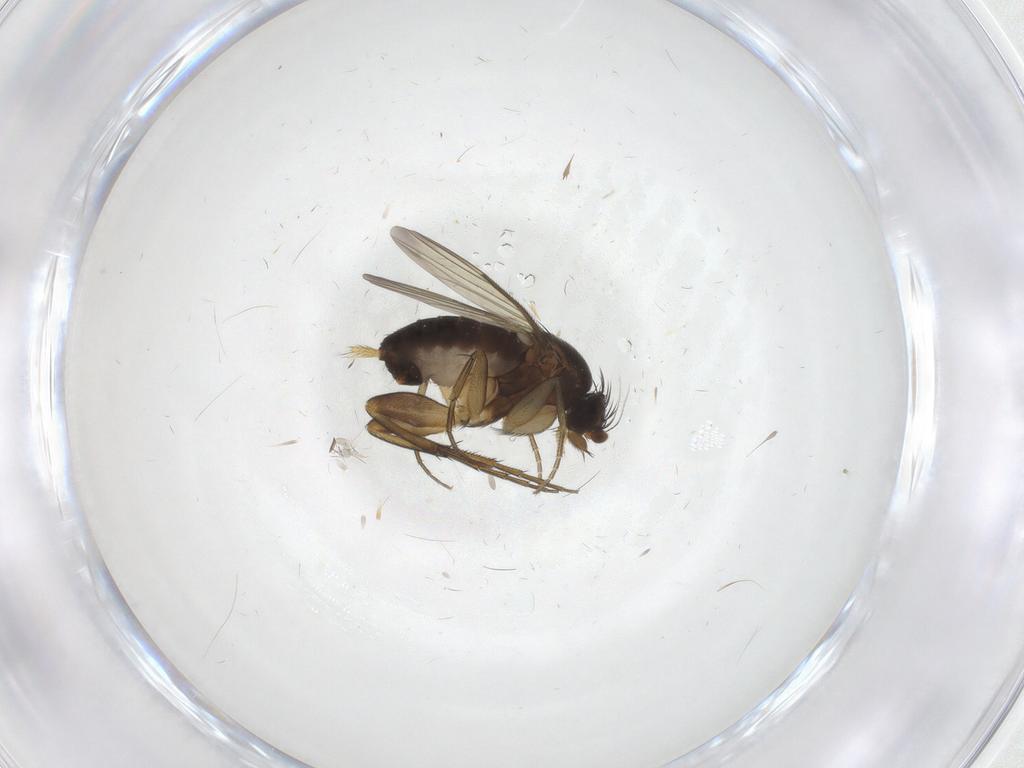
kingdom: Animalia
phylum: Arthropoda
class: Insecta
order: Diptera
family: Phoridae
